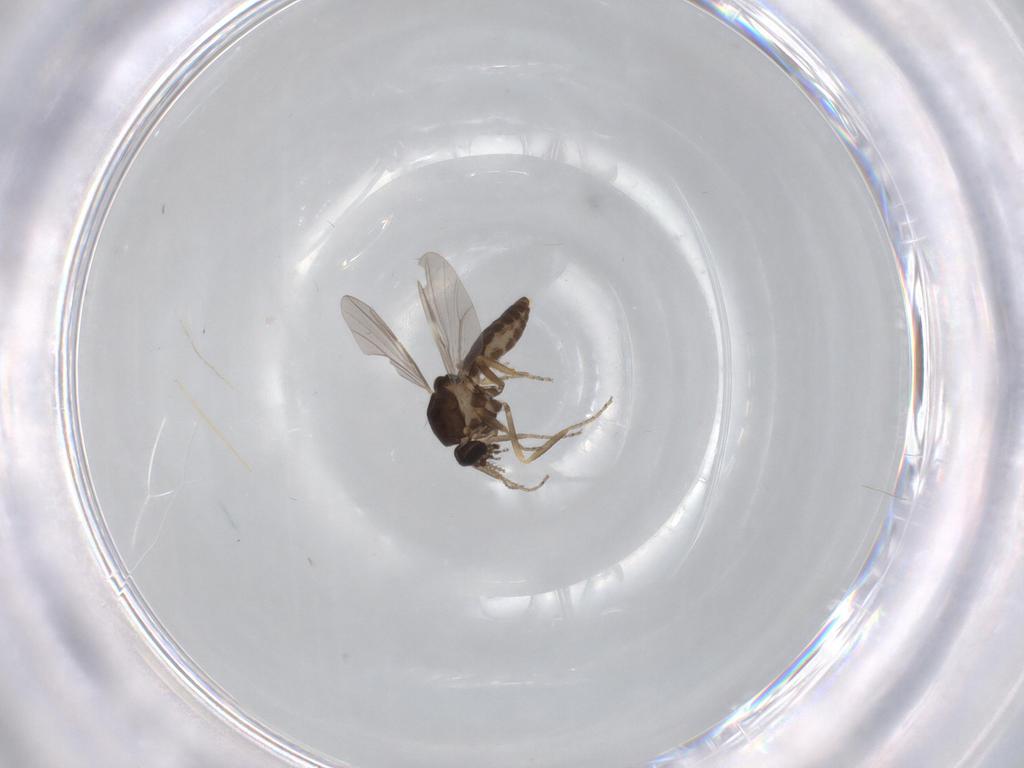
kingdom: Animalia
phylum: Arthropoda
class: Insecta
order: Diptera
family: Ceratopogonidae
